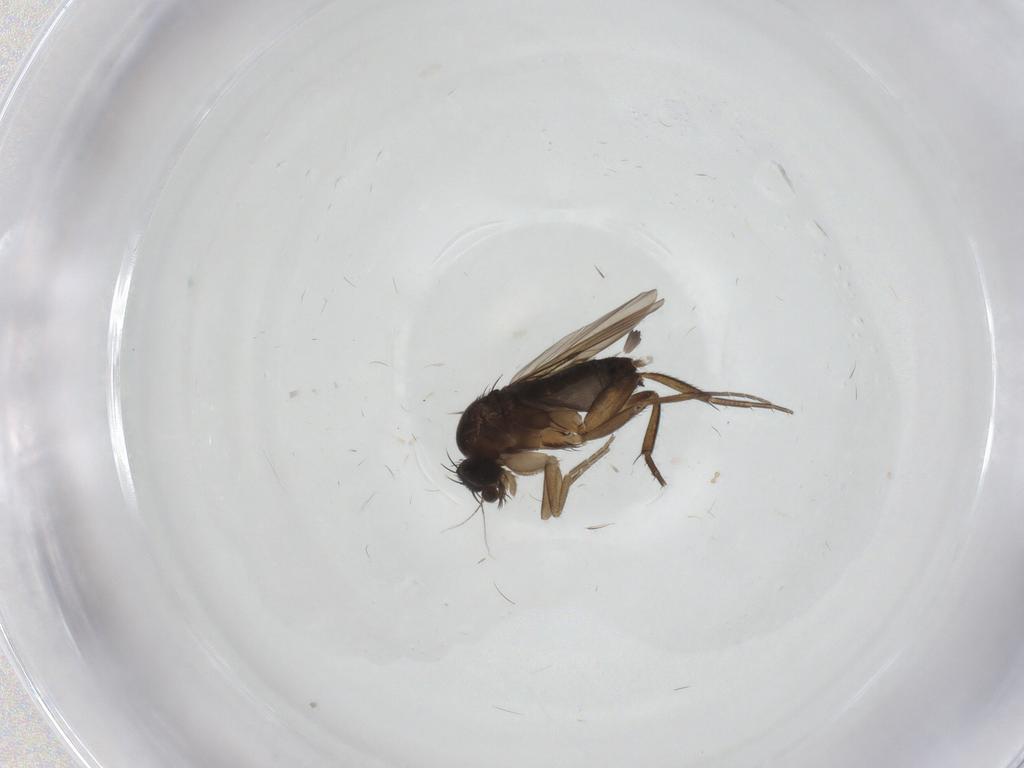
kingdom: Animalia
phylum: Arthropoda
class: Insecta
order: Diptera
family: Phoridae
